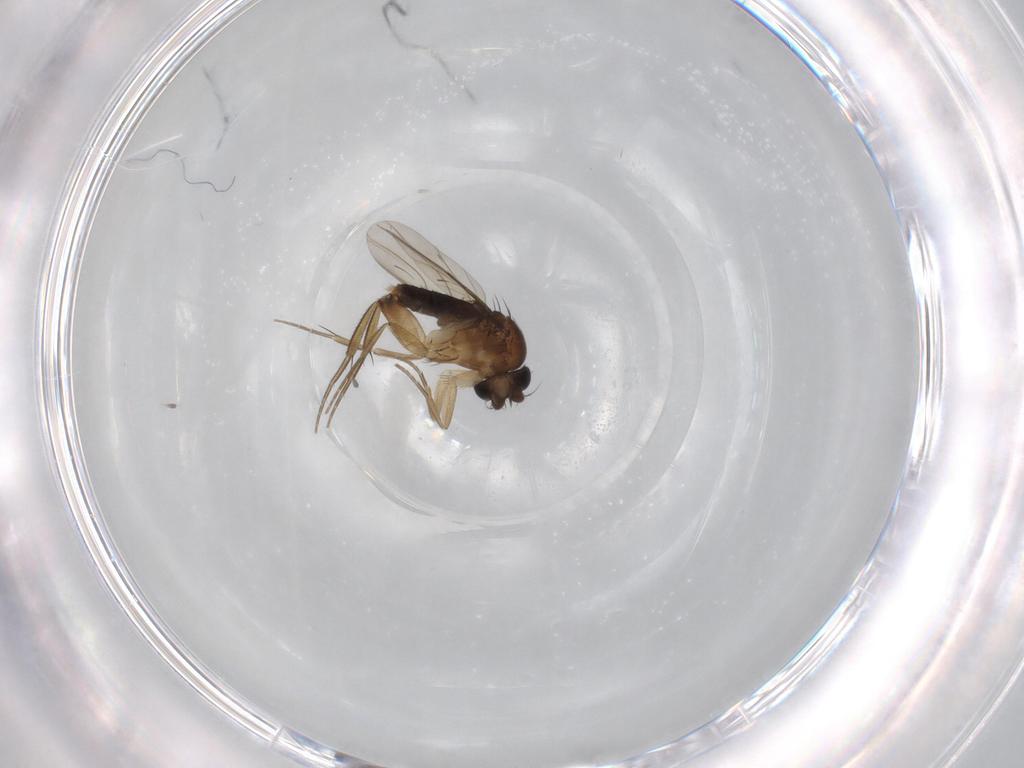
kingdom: Animalia
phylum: Arthropoda
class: Insecta
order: Diptera
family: Phoridae
